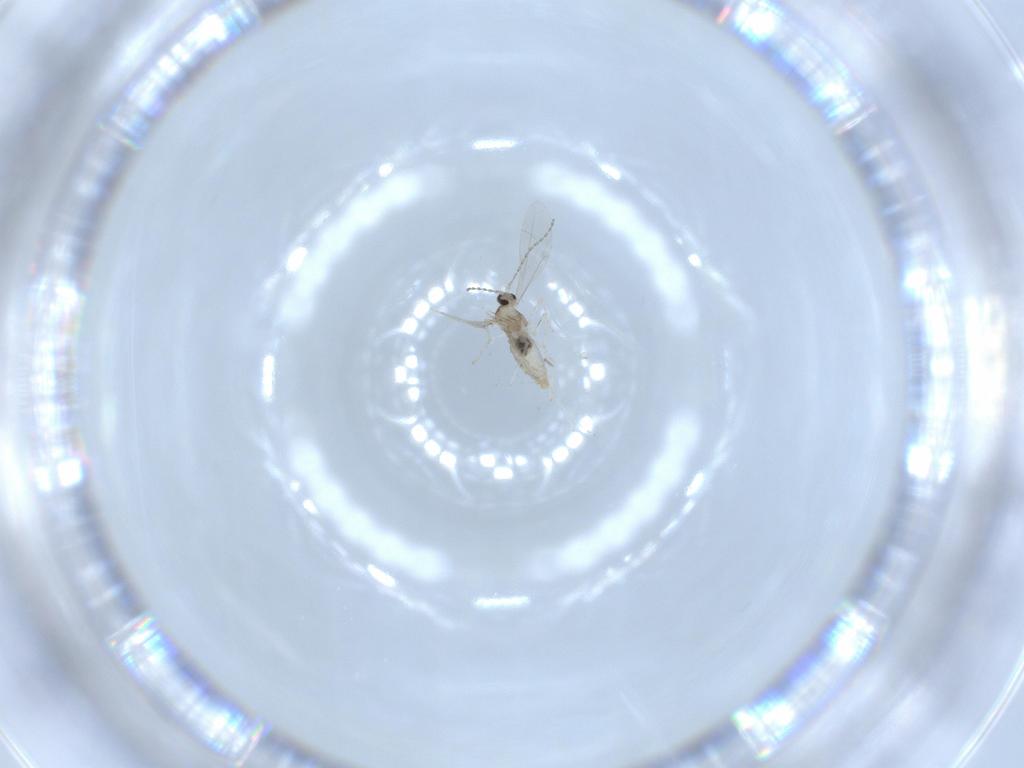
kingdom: Animalia
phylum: Arthropoda
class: Insecta
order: Diptera
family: Cecidomyiidae
